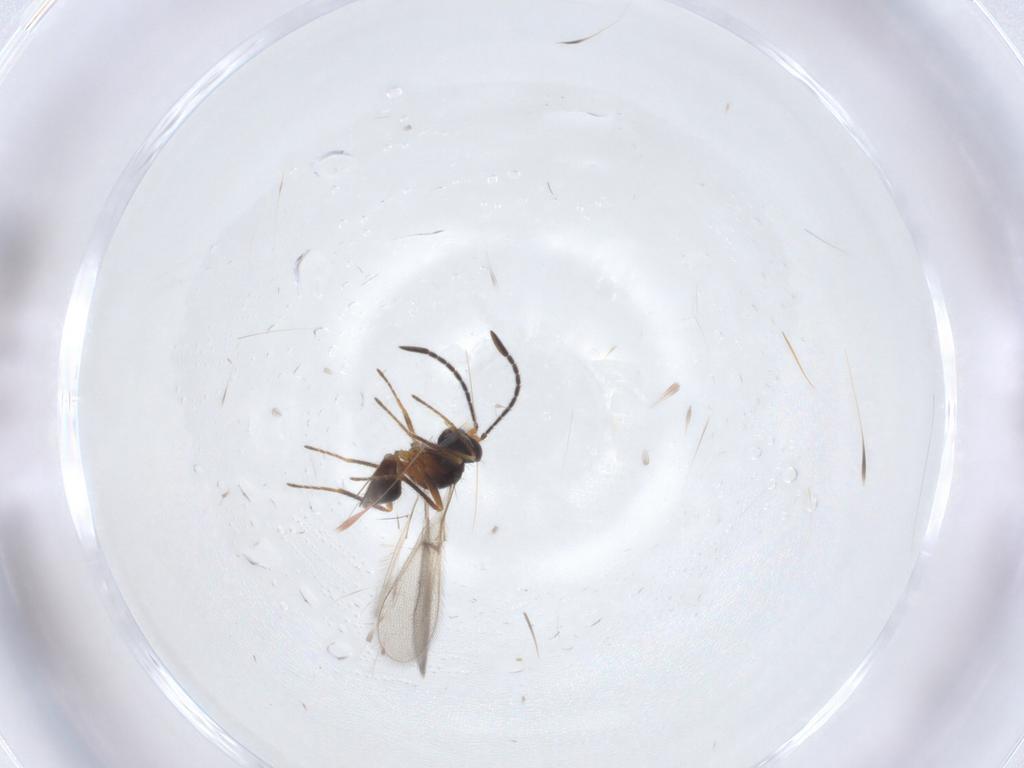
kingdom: Animalia
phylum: Arthropoda
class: Insecta
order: Hymenoptera
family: Mymaridae
